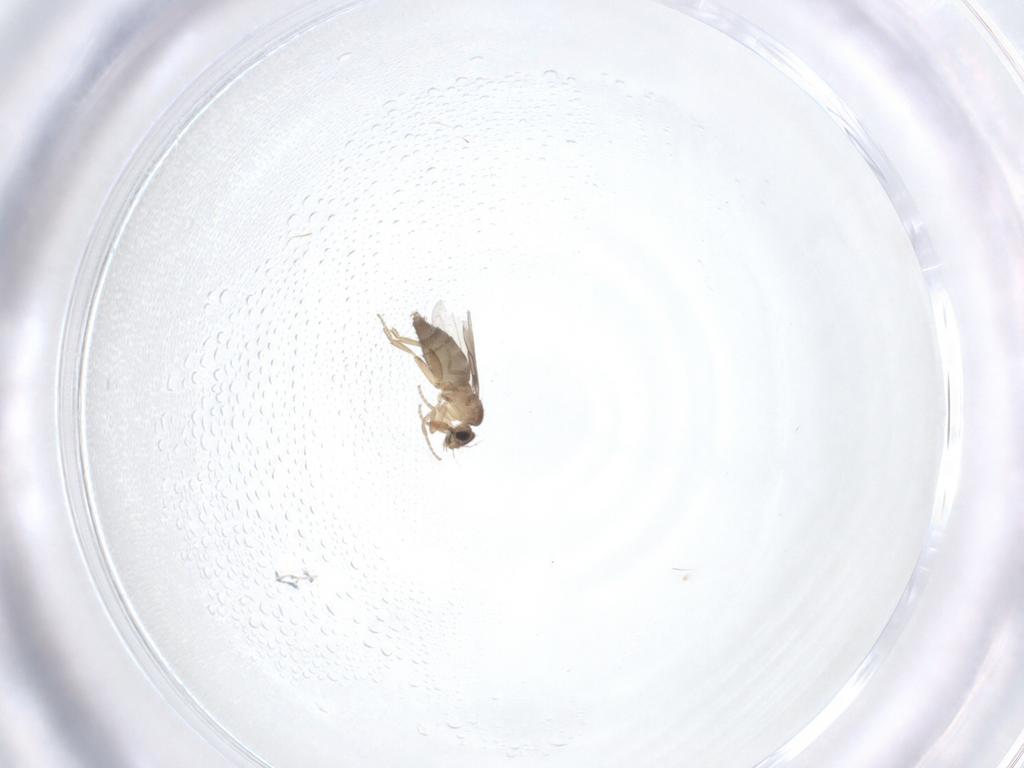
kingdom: Animalia
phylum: Arthropoda
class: Insecta
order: Diptera
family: Phoridae
